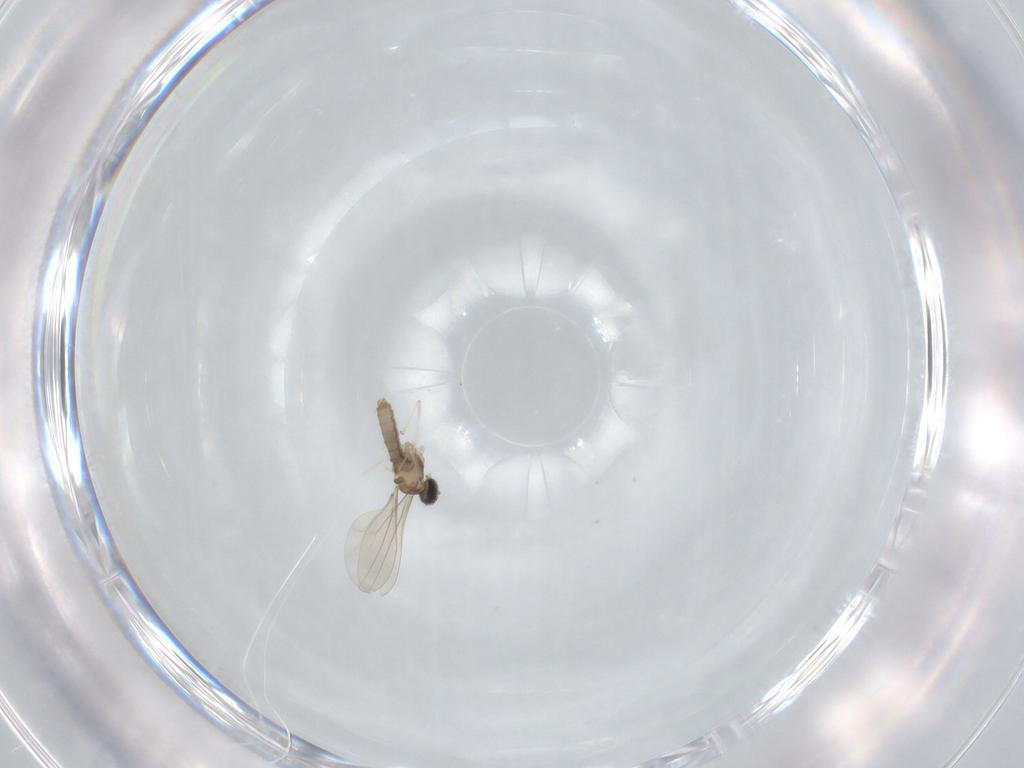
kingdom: Animalia
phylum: Arthropoda
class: Insecta
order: Diptera
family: Cecidomyiidae
